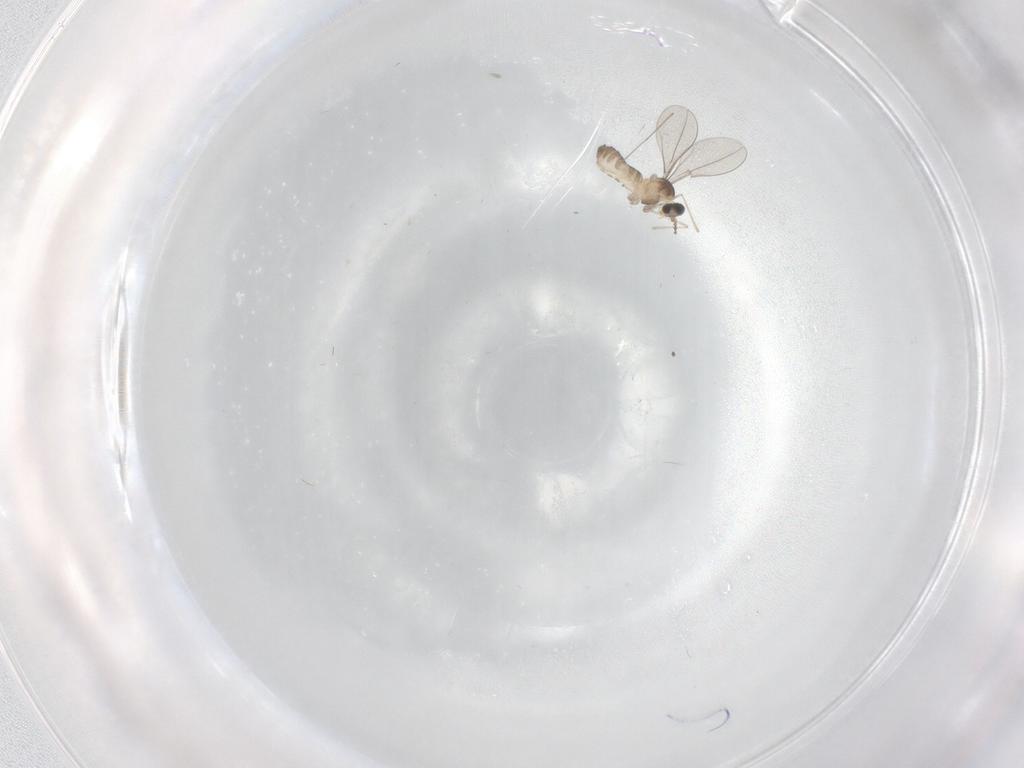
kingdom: Animalia
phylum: Arthropoda
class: Insecta
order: Diptera
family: Cecidomyiidae
